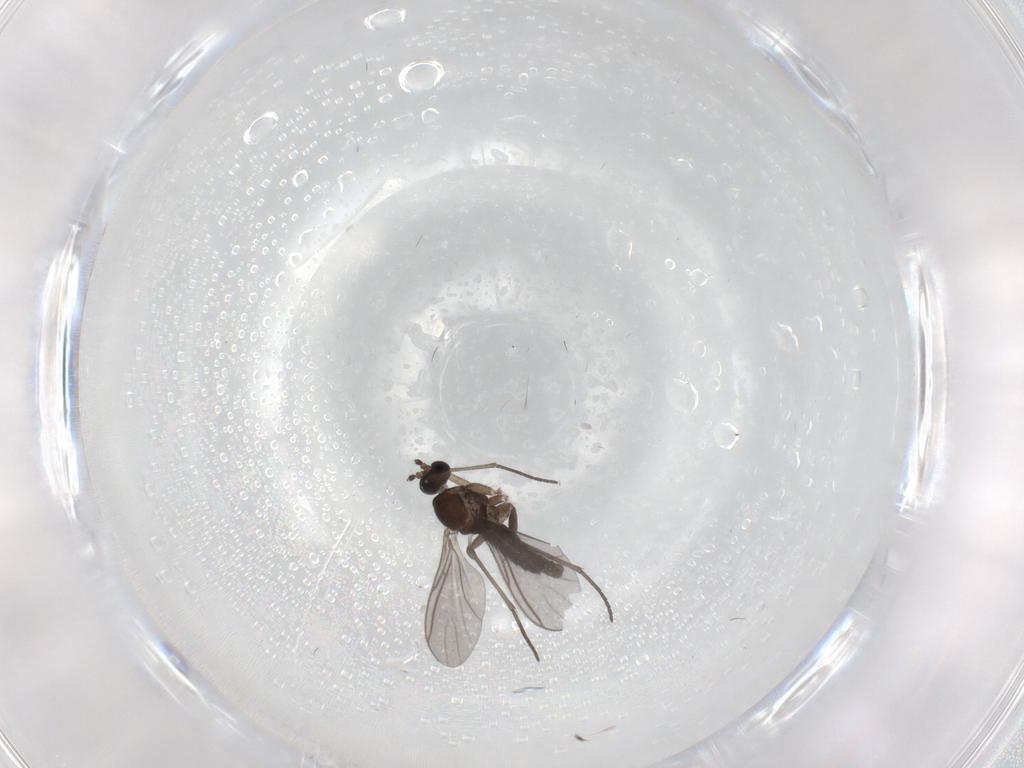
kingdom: Animalia
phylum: Arthropoda
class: Insecta
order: Diptera
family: Ceratopogonidae
